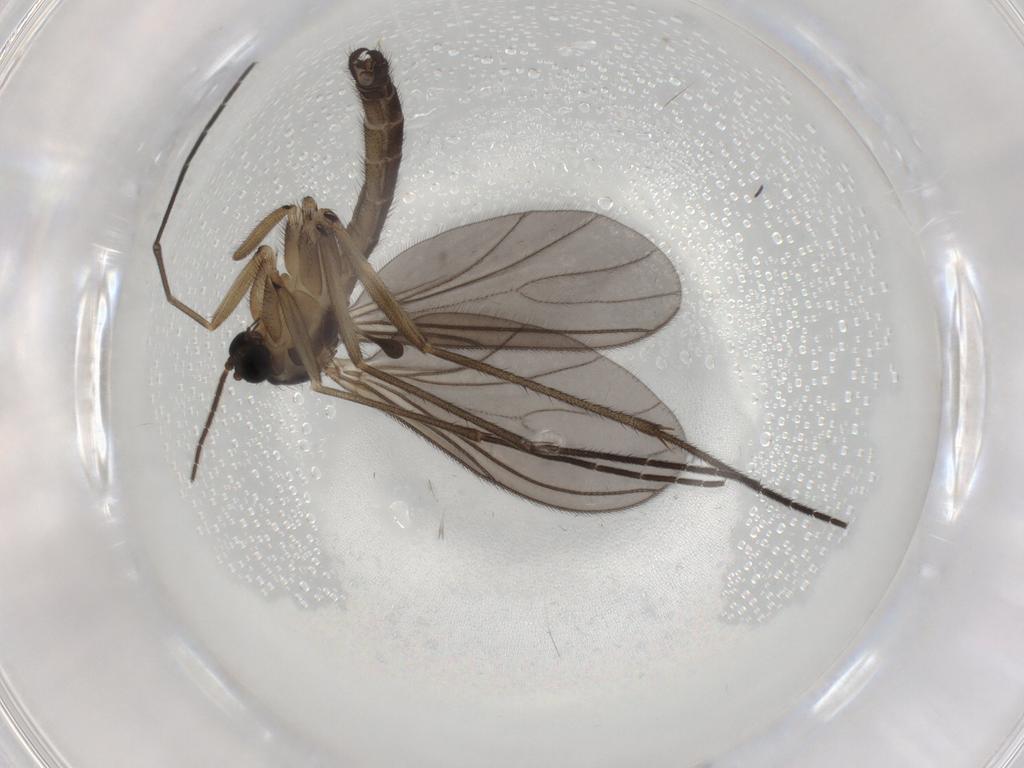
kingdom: Animalia
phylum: Arthropoda
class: Insecta
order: Diptera
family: Sciaridae
